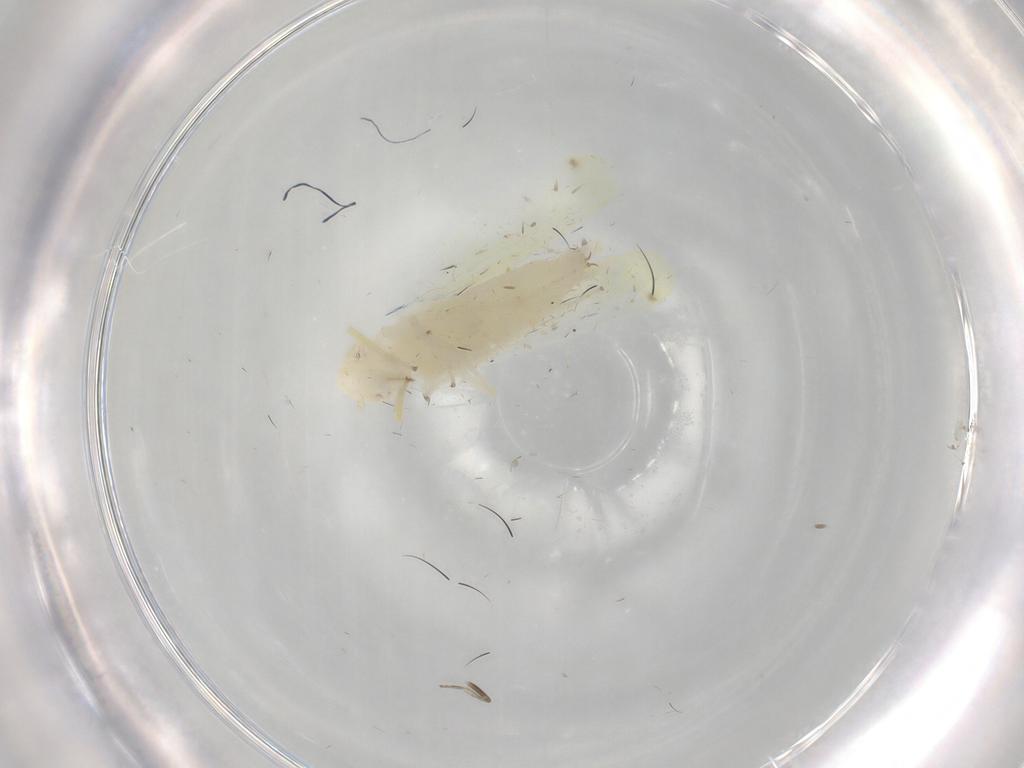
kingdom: Animalia
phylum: Arthropoda
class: Insecta
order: Hemiptera
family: Cicadellidae
